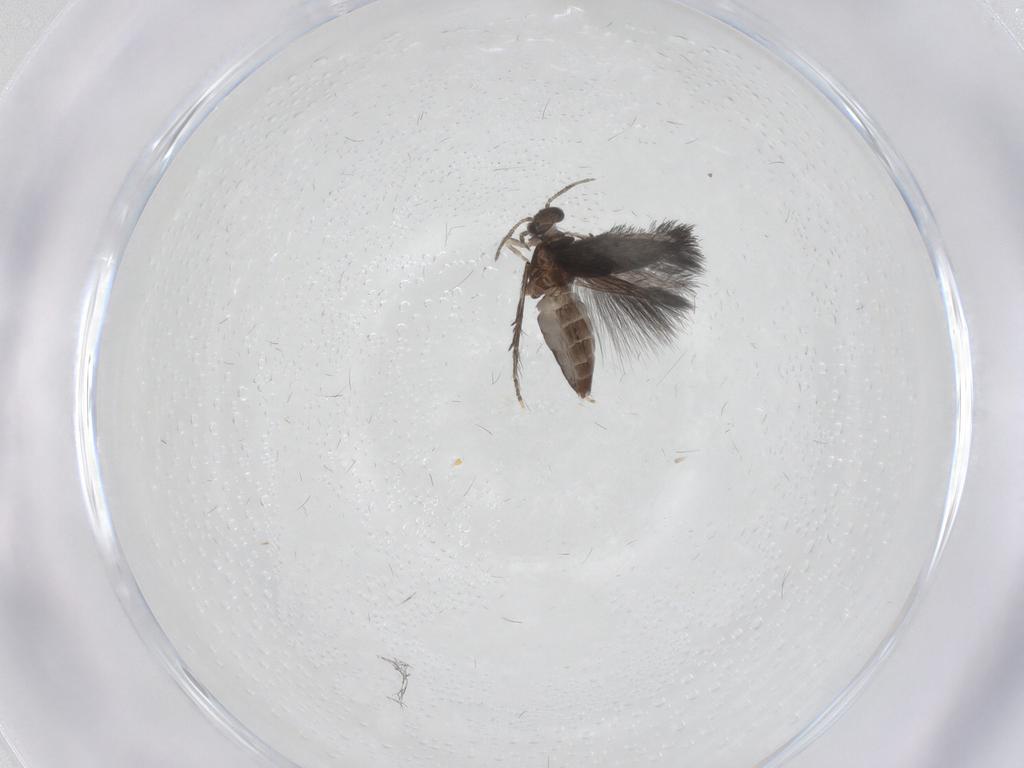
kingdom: Animalia
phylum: Arthropoda
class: Insecta
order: Trichoptera
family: Hydroptilidae
